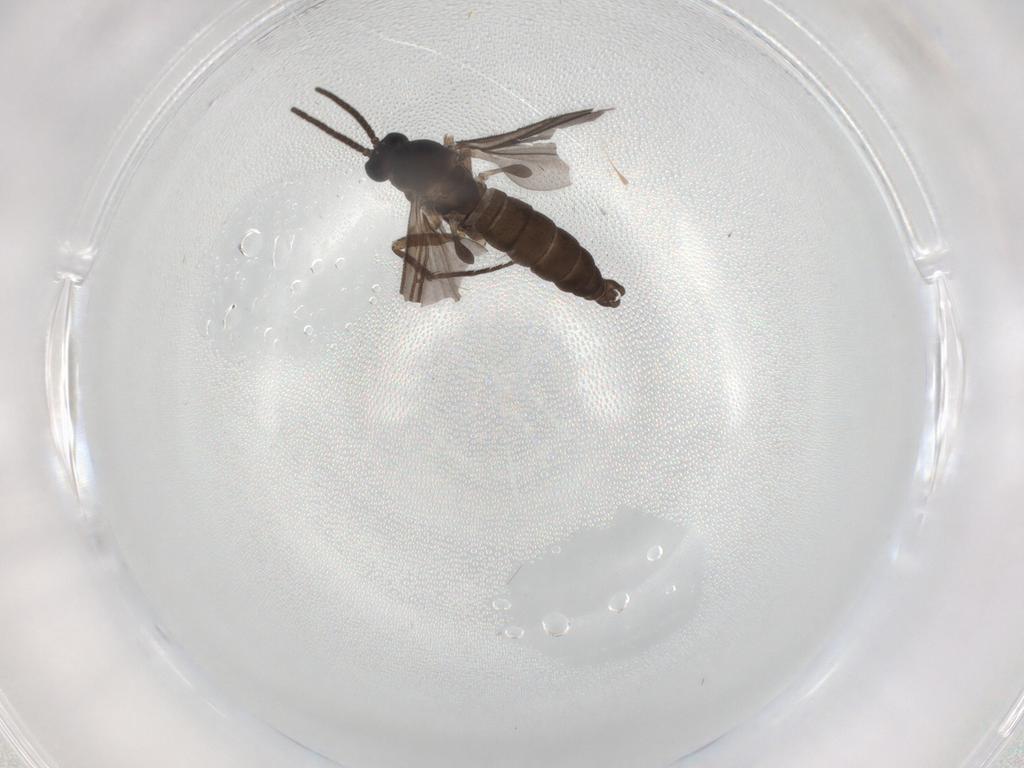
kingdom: Animalia
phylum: Arthropoda
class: Insecta
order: Diptera
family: Sciaridae
